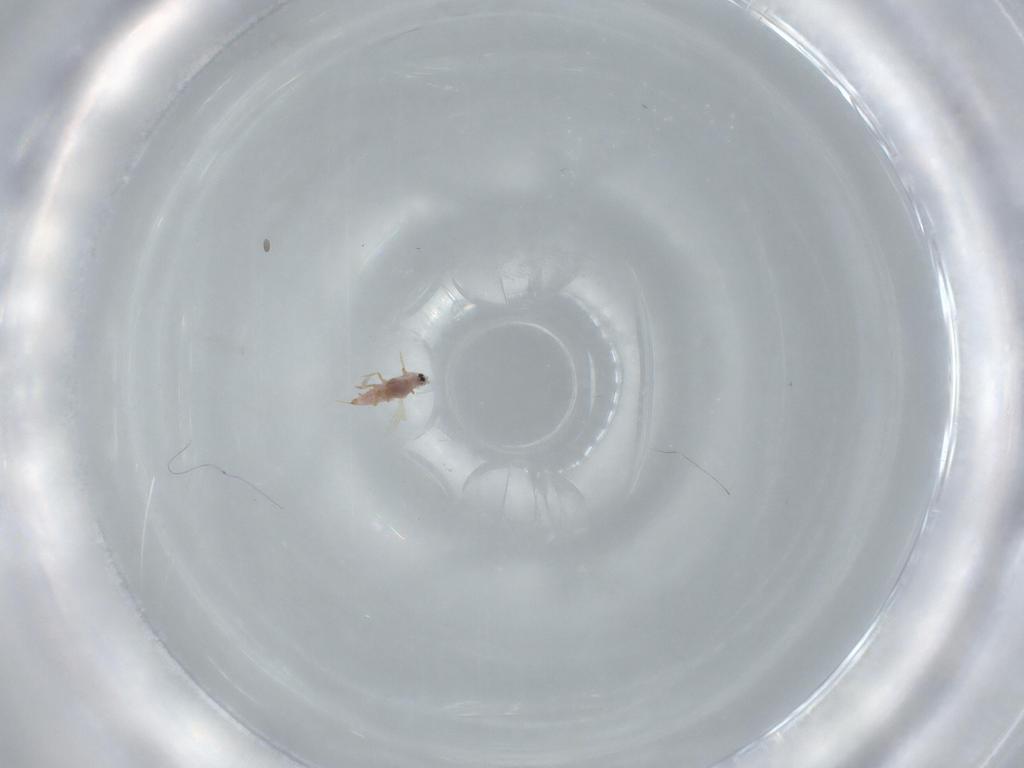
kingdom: Animalia
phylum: Arthropoda
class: Insecta
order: Hemiptera
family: Diaspididae
